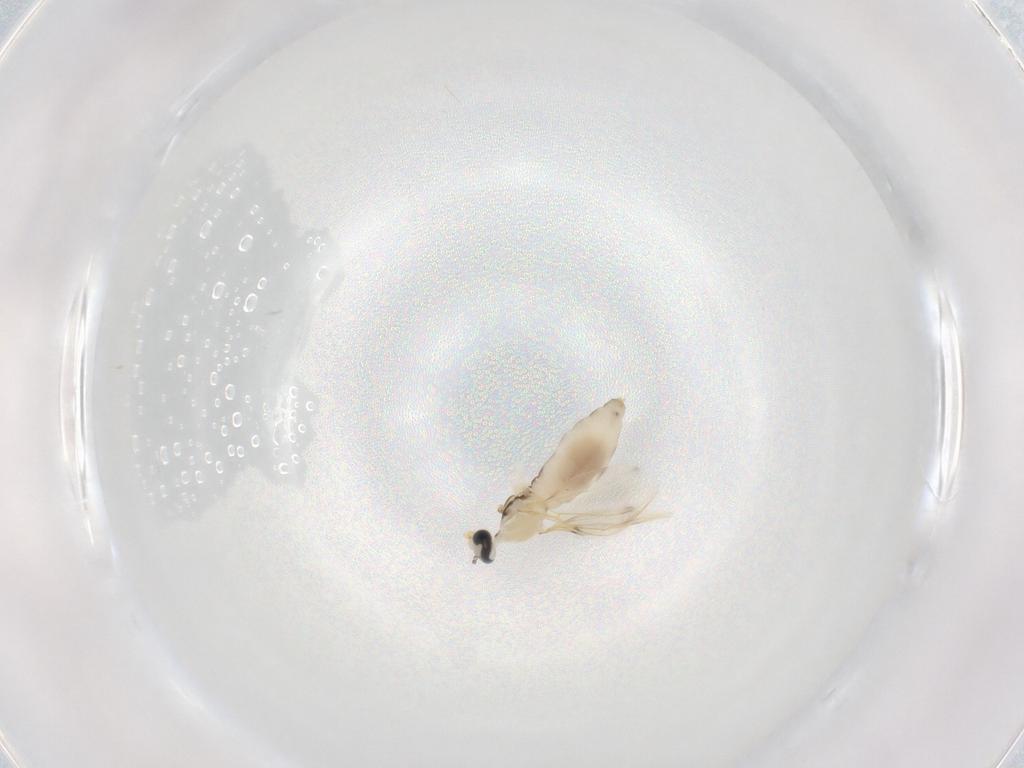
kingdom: Animalia
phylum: Arthropoda
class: Insecta
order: Diptera
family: Cecidomyiidae
